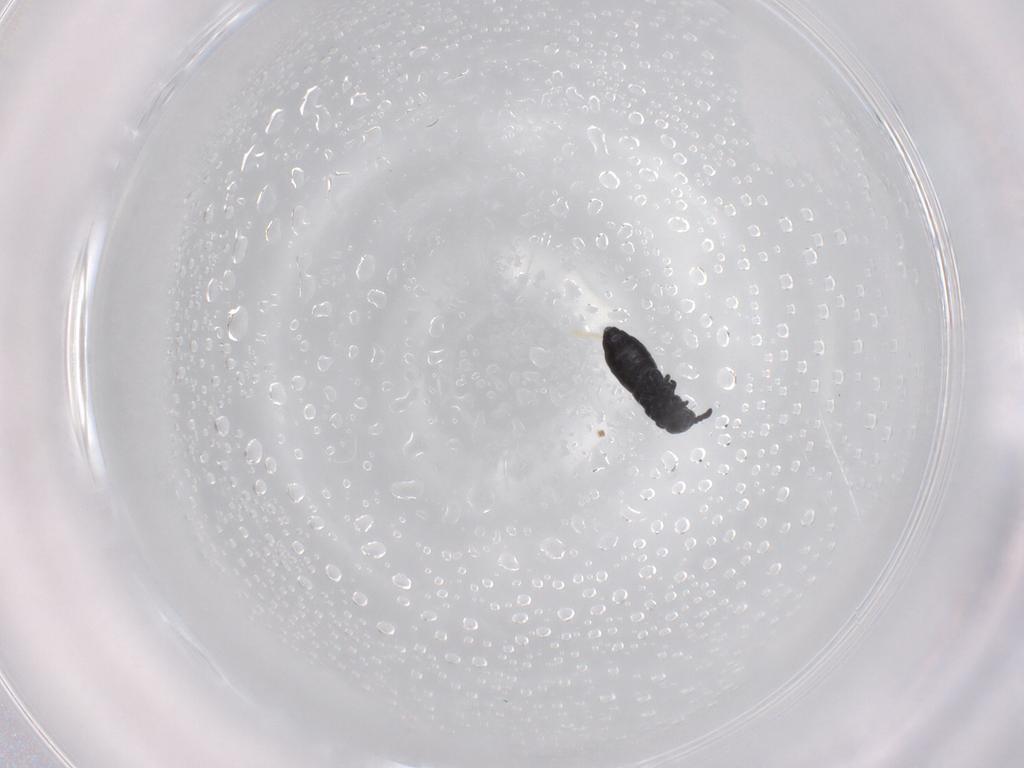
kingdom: Animalia
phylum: Arthropoda
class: Collembola
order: Poduromorpha
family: Hypogastruridae
